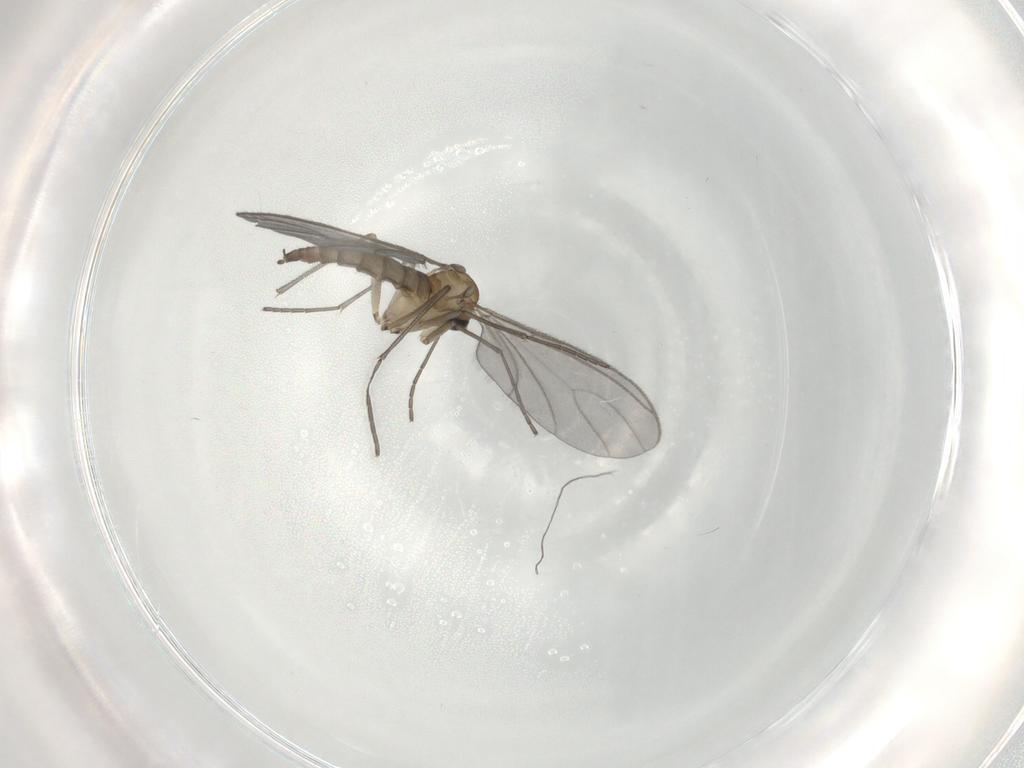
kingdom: Animalia
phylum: Arthropoda
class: Insecta
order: Diptera
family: Sciaridae
